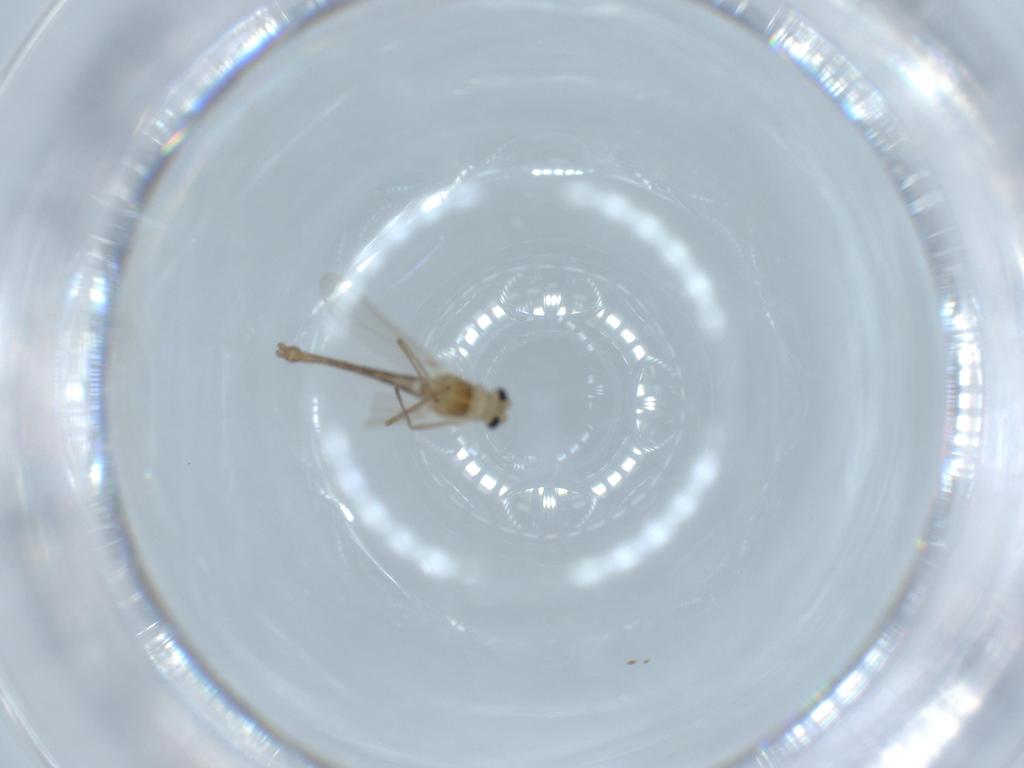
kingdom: Animalia
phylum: Arthropoda
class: Insecta
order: Diptera
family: Chironomidae
